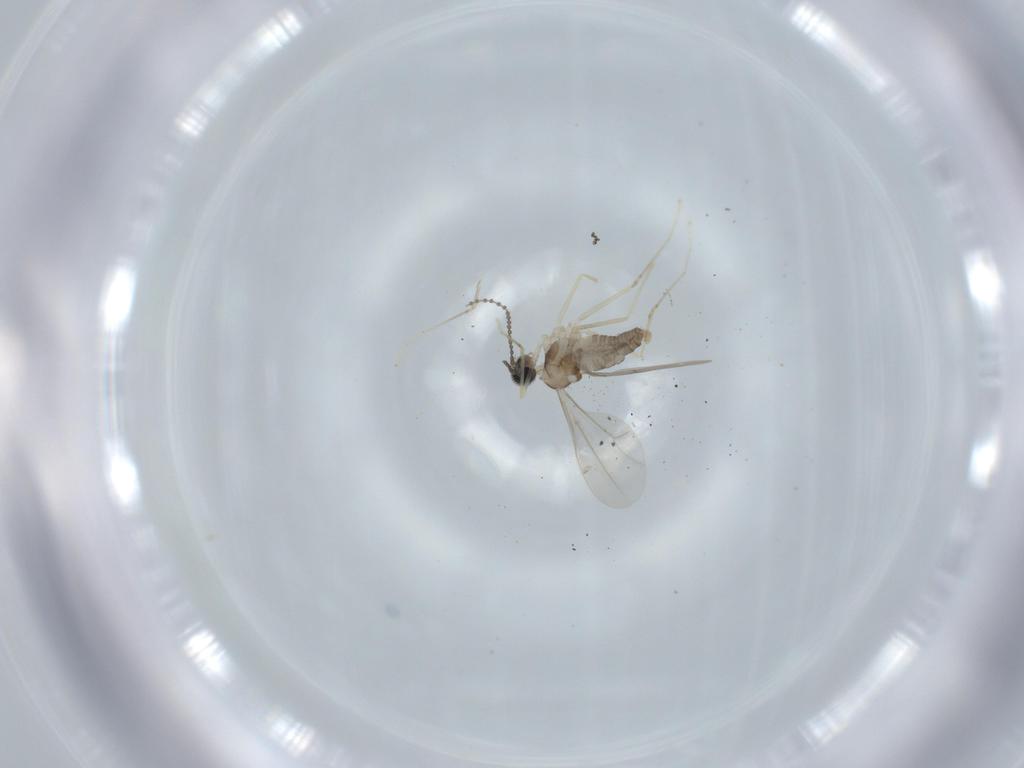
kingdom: Animalia
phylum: Arthropoda
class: Insecta
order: Diptera
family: Cecidomyiidae
